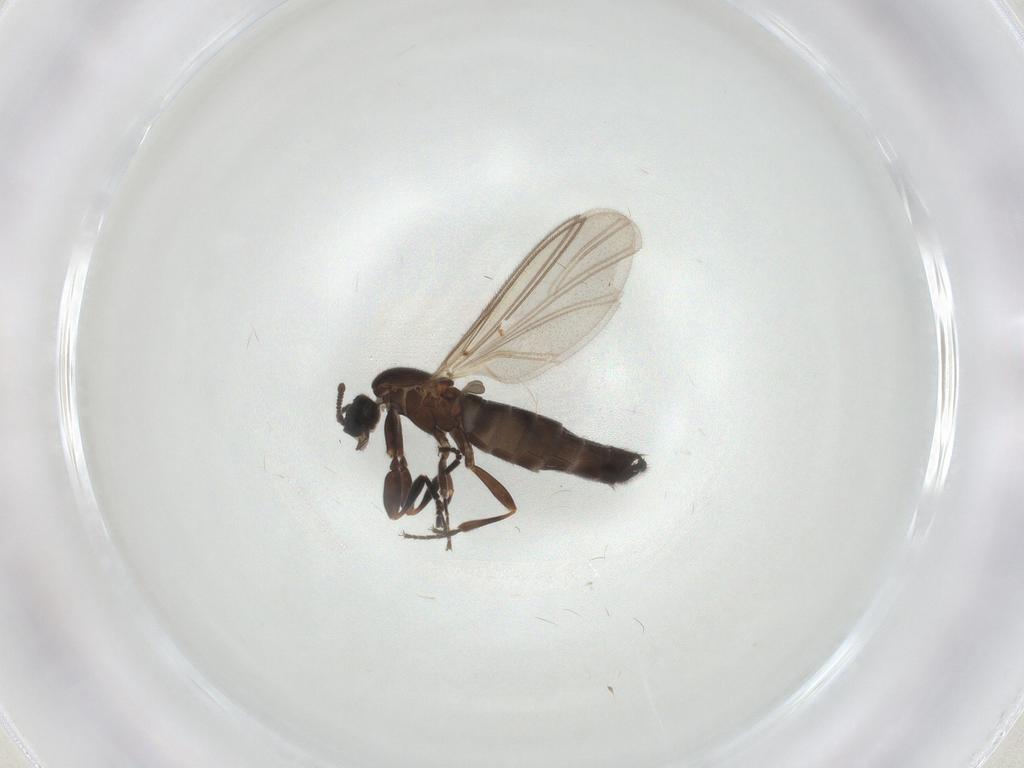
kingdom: Animalia
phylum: Arthropoda
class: Insecta
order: Diptera
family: Scatopsidae
